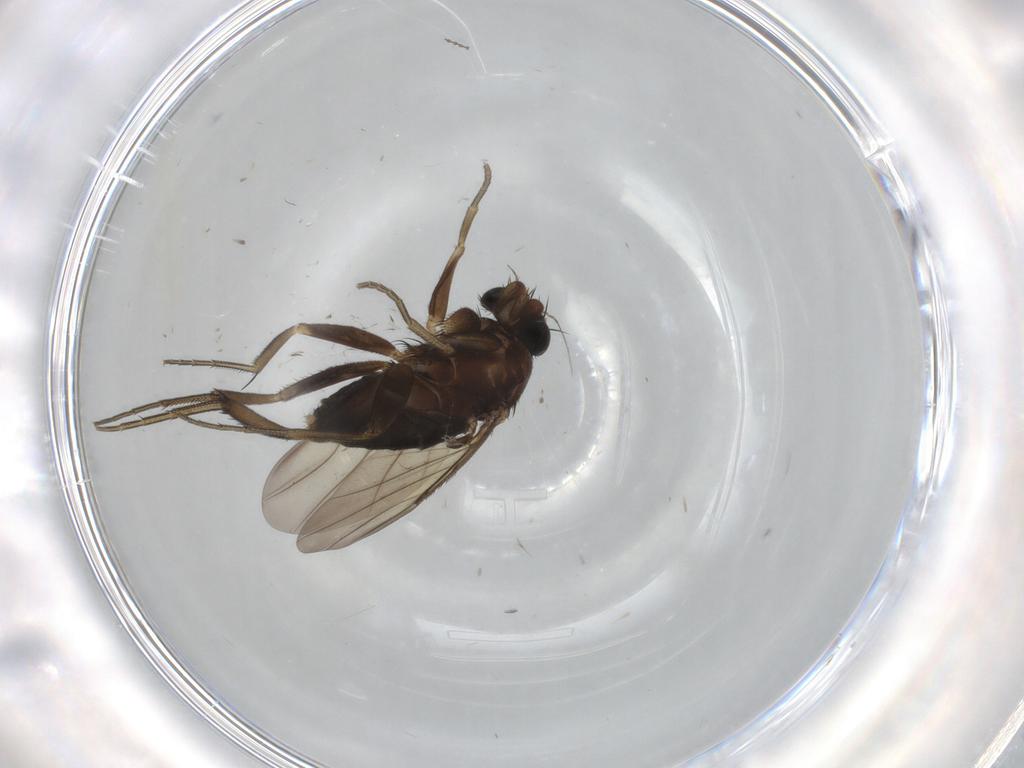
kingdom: Animalia
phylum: Arthropoda
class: Insecta
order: Diptera
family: Phoridae
